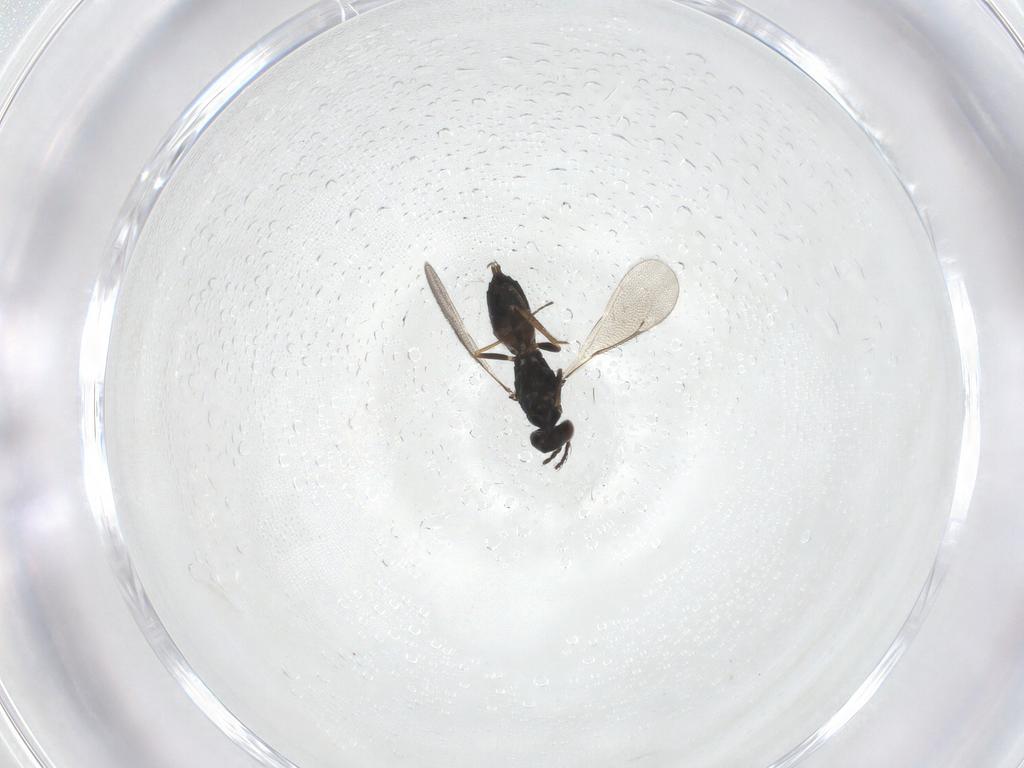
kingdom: Animalia
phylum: Arthropoda
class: Insecta
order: Hymenoptera
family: Eulophidae
